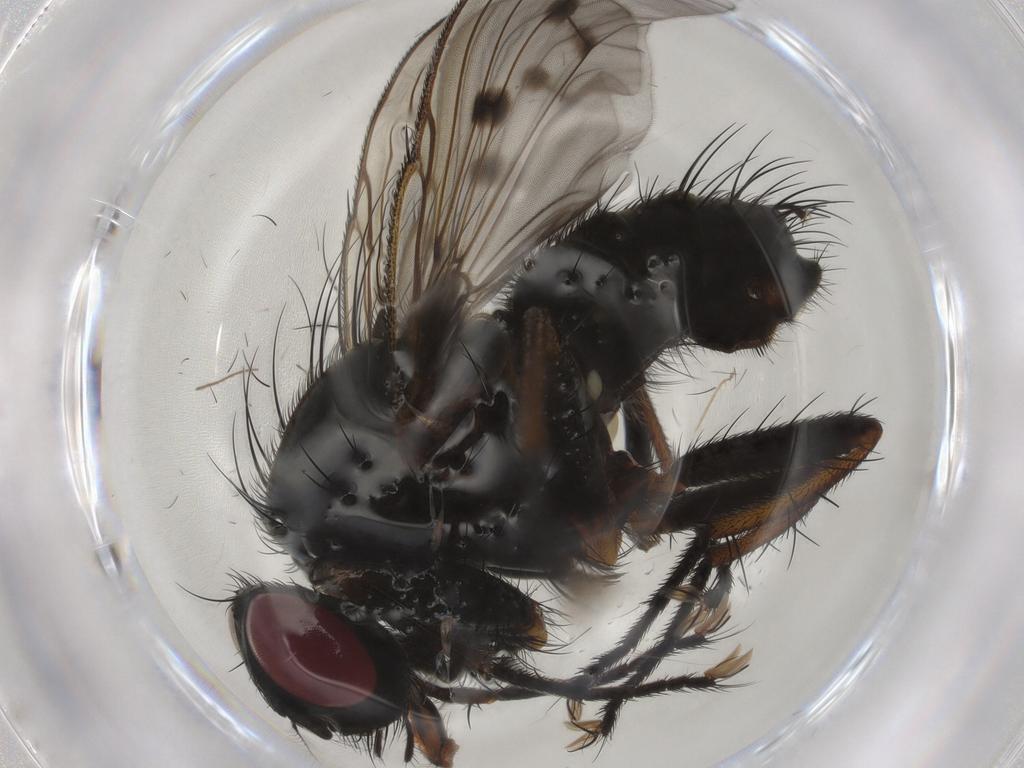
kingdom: Animalia
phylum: Arthropoda
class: Insecta
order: Diptera
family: Muscidae
